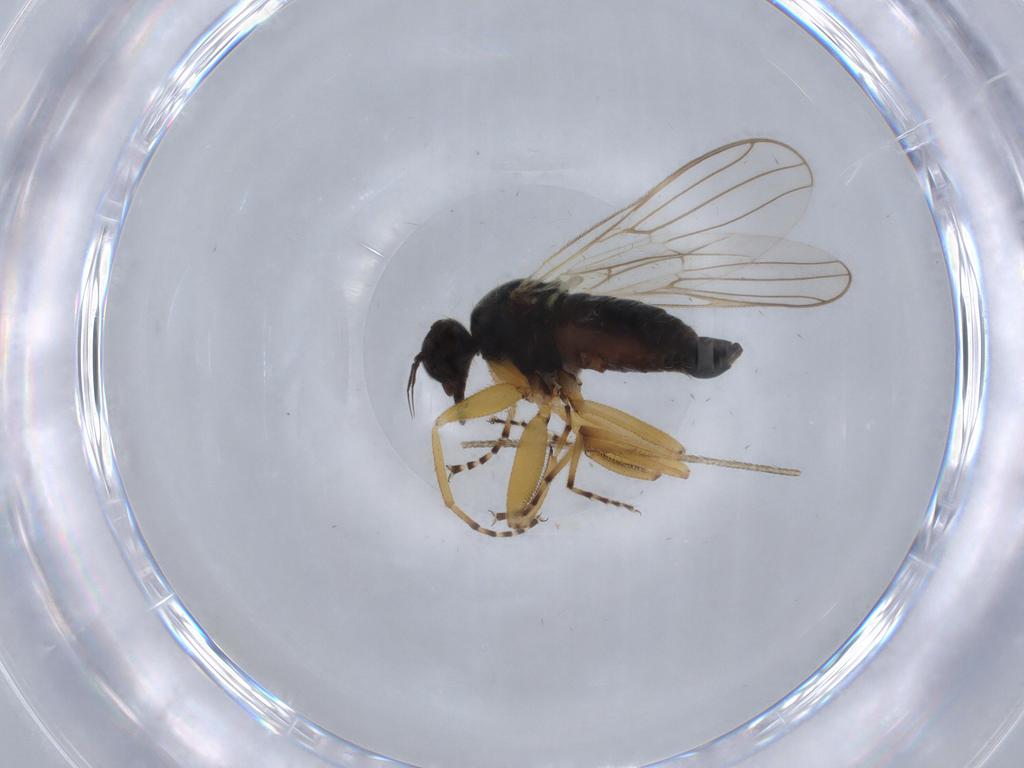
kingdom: Animalia
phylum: Arthropoda
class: Insecta
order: Diptera
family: Hybotidae
